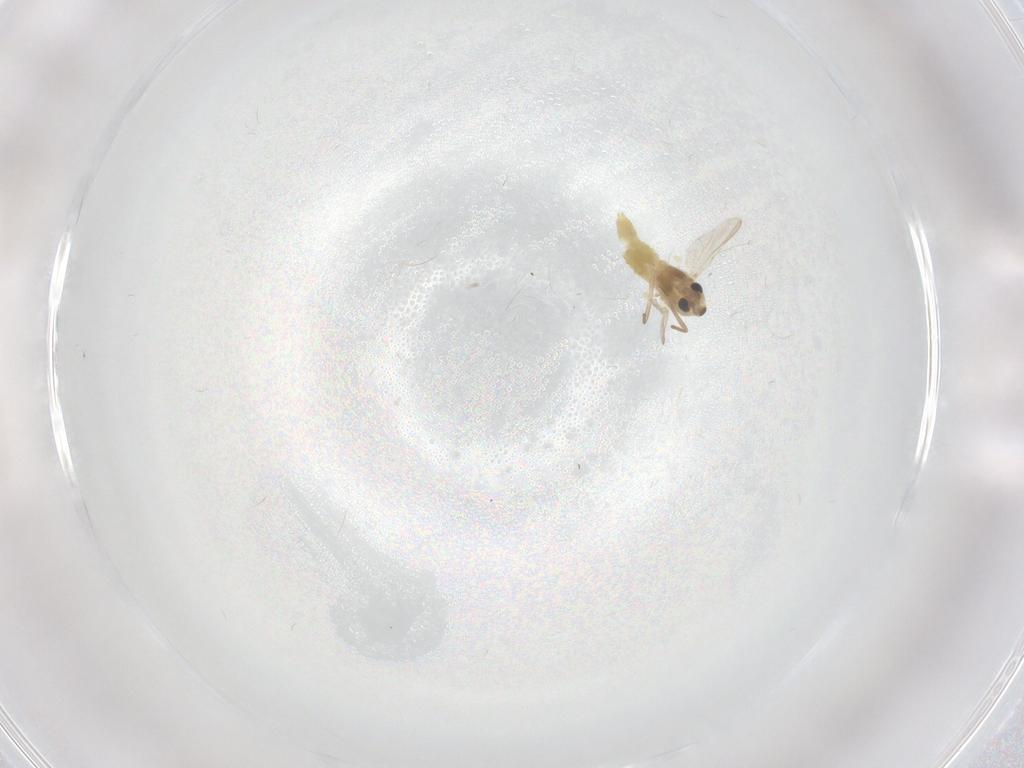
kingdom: Animalia
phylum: Arthropoda
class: Insecta
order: Diptera
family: Chironomidae
